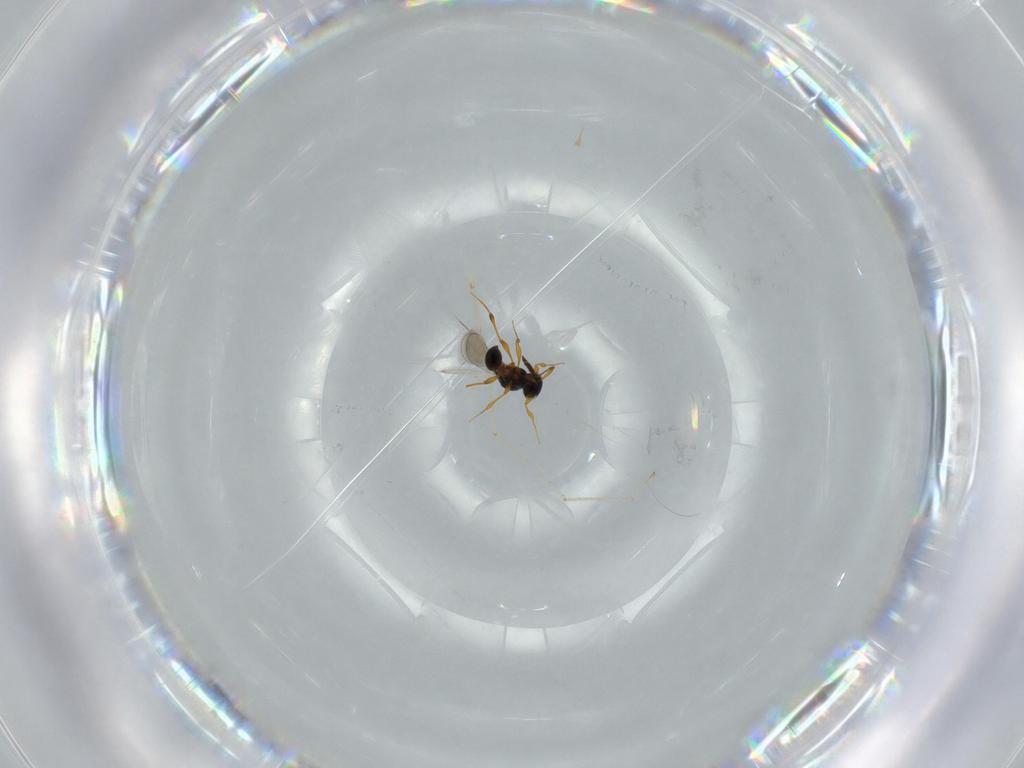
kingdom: Animalia
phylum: Arthropoda
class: Insecta
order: Hymenoptera
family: Platygastridae
